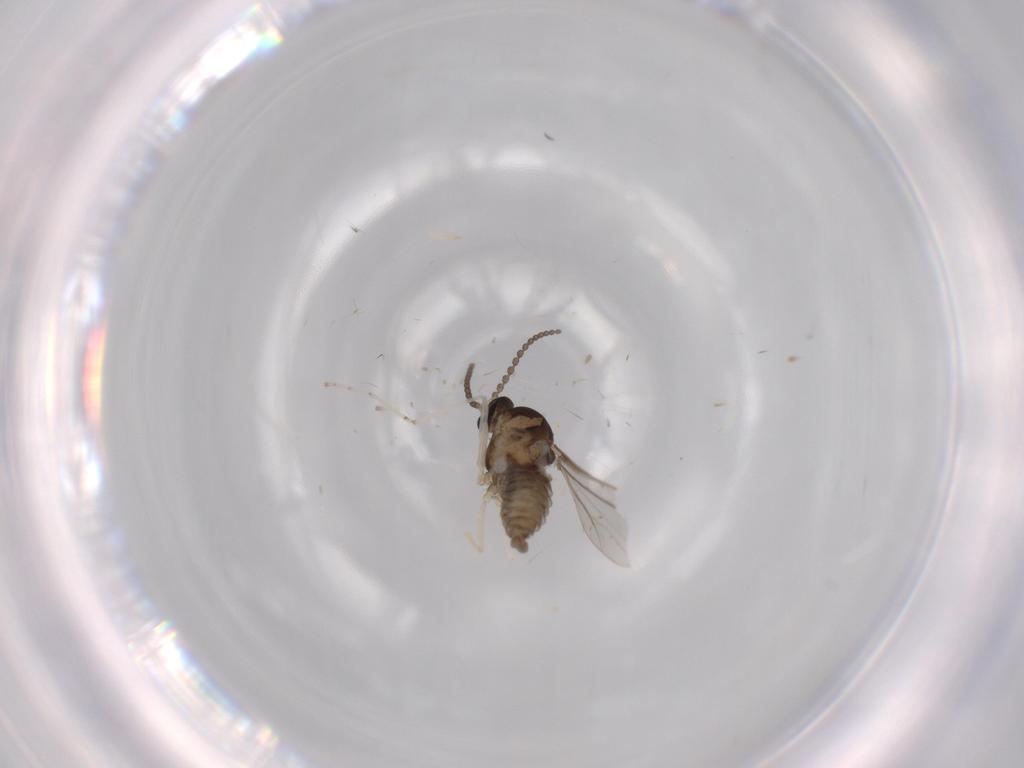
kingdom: Animalia
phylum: Arthropoda
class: Insecta
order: Diptera
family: Cecidomyiidae
